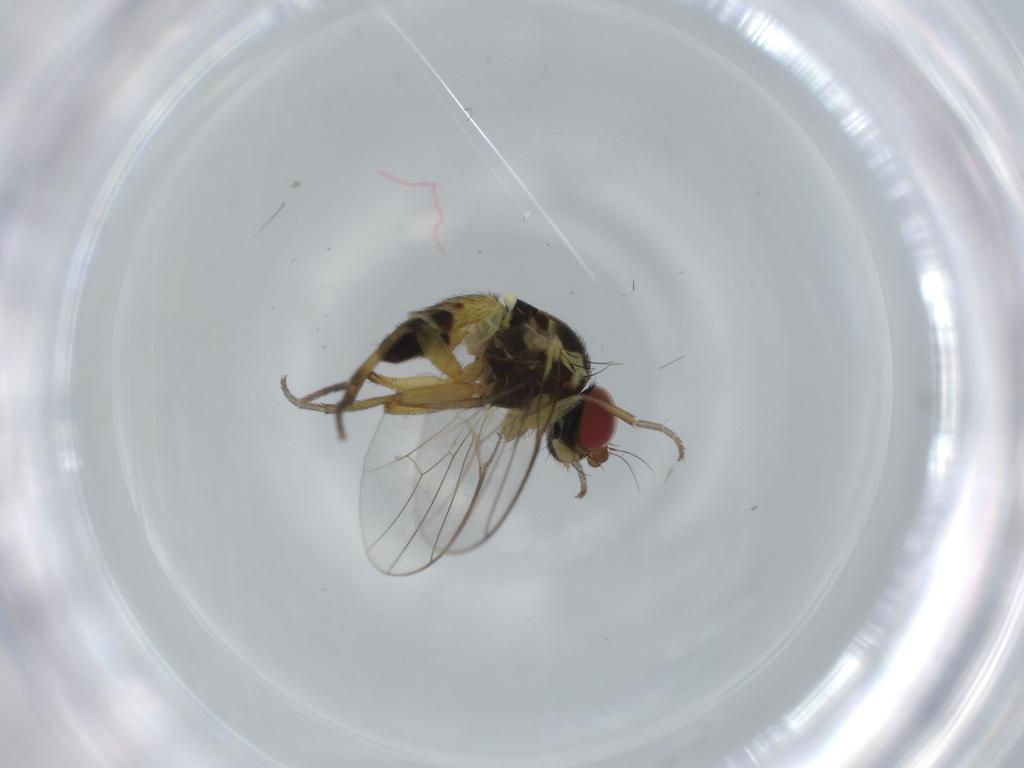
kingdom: Animalia
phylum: Arthropoda
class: Insecta
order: Diptera
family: Agromyzidae
